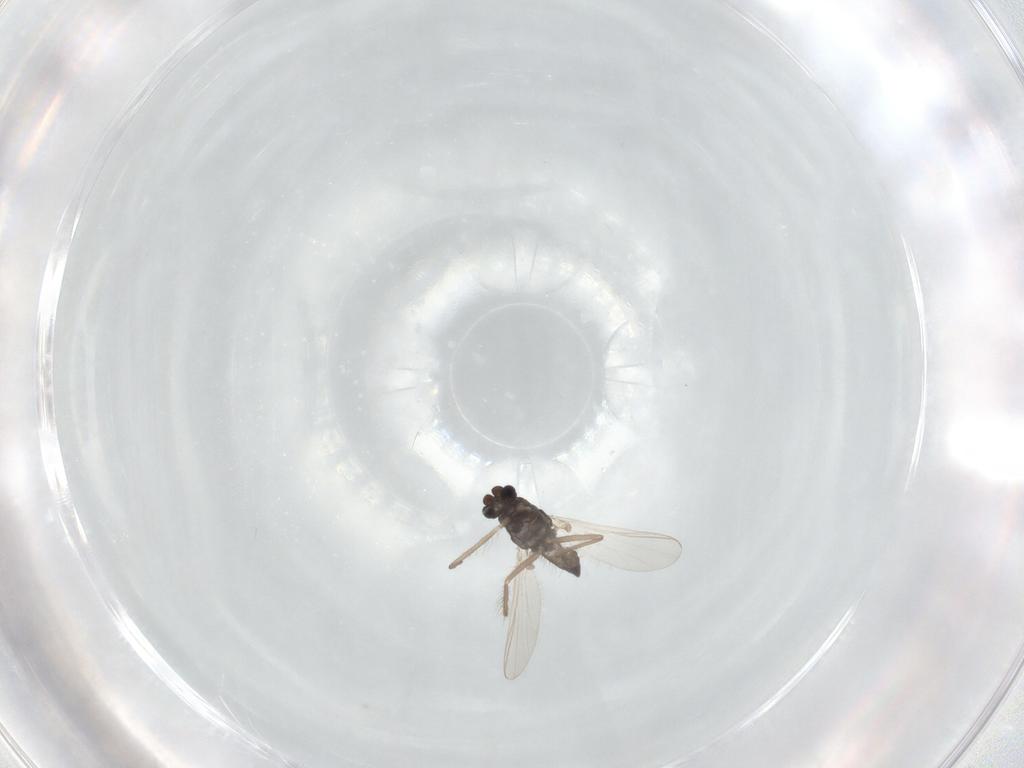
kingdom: Animalia
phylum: Arthropoda
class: Insecta
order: Diptera
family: Chironomidae
